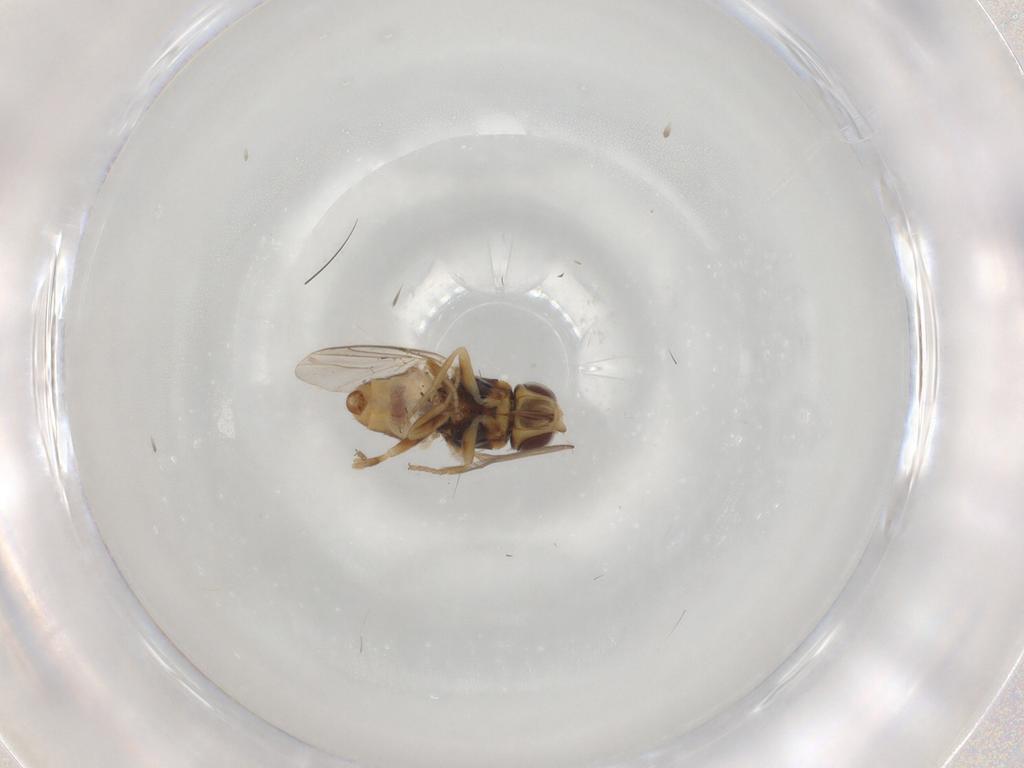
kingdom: Animalia
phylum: Arthropoda
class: Insecta
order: Diptera
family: Chloropidae
